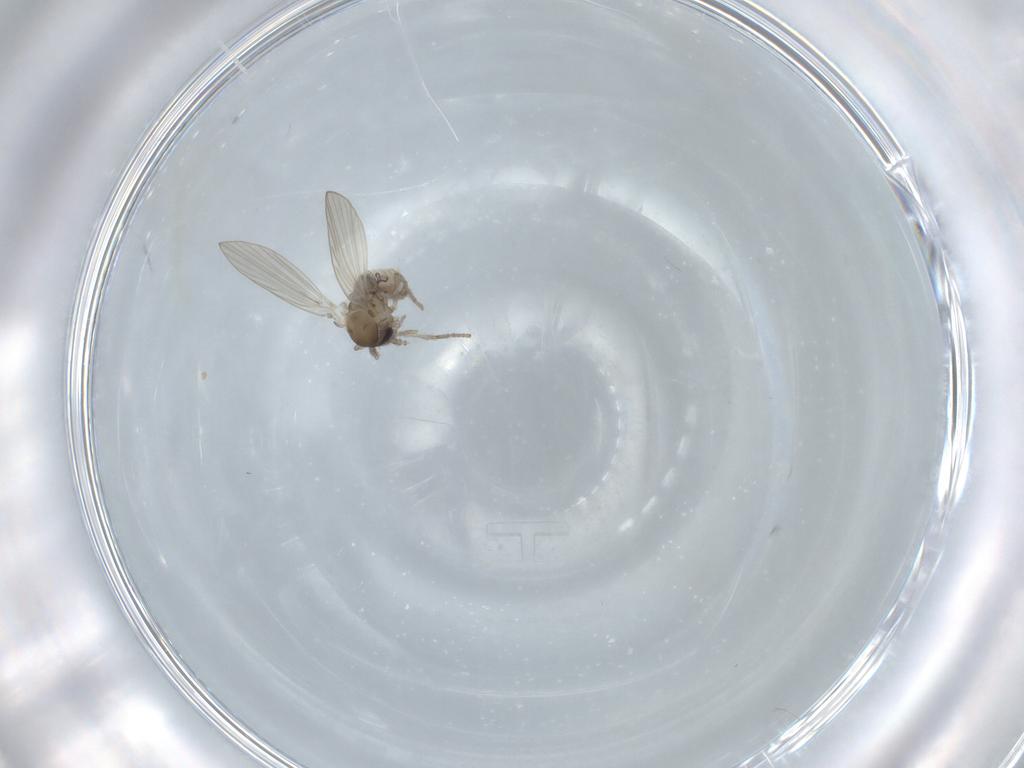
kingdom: Animalia
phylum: Arthropoda
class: Insecta
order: Diptera
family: Psychodidae
